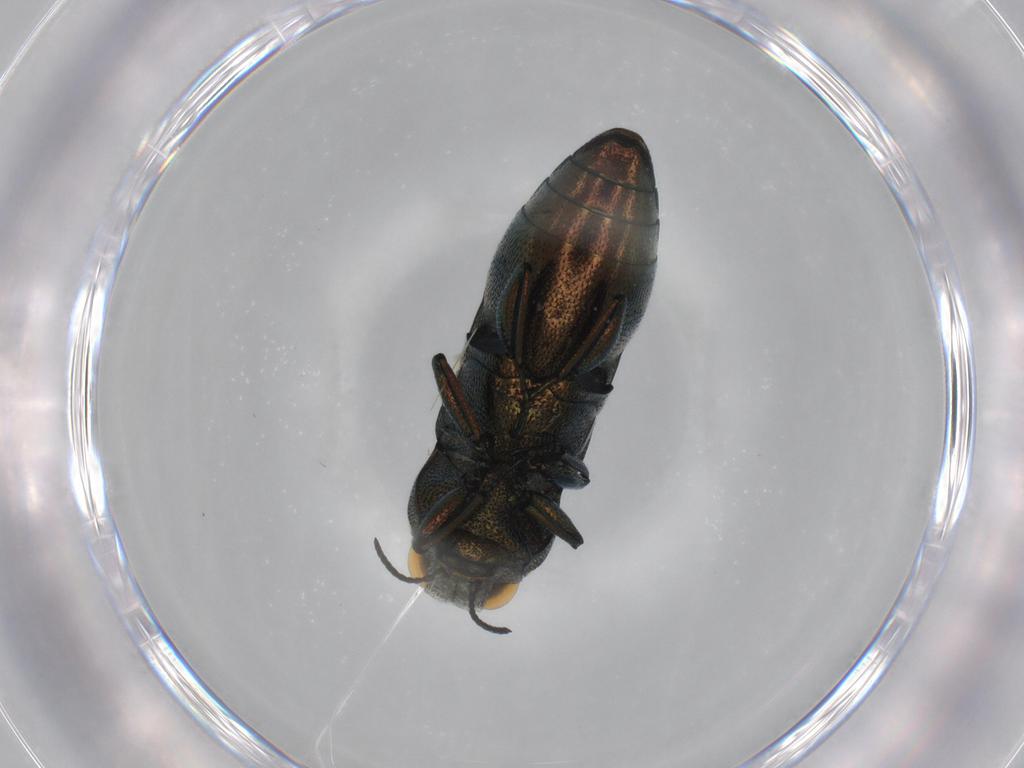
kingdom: Animalia
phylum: Arthropoda
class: Insecta
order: Coleoptera
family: Buprestidae
